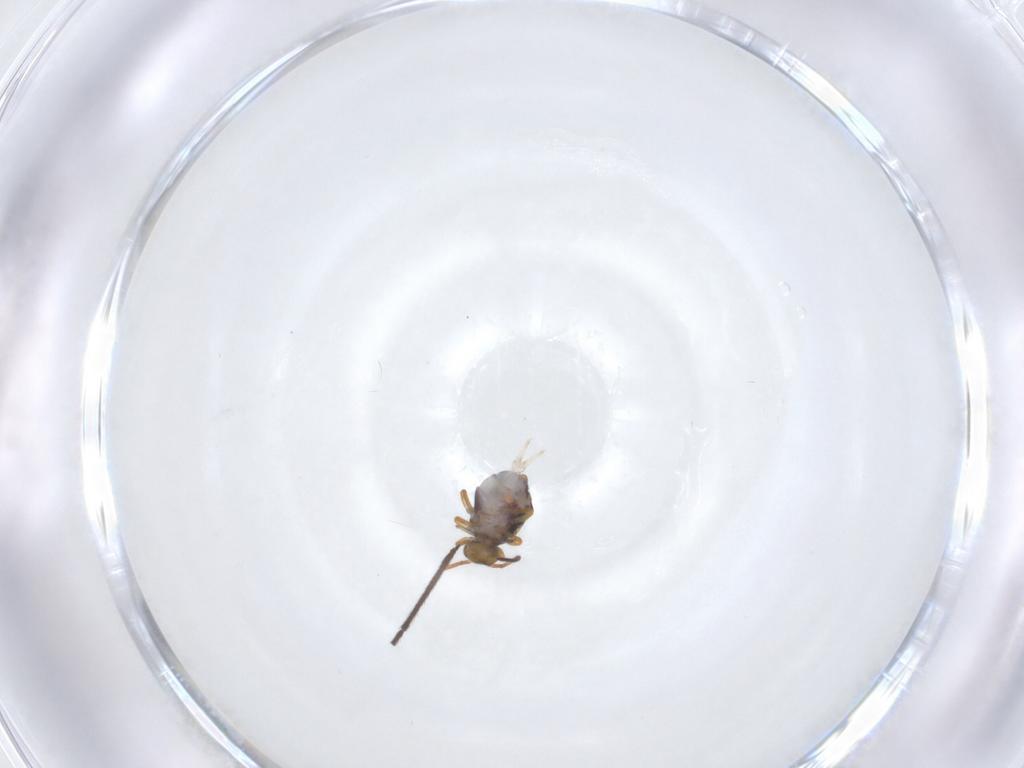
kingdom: Animalia
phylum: Arthropoda
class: Collembola
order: Symphypleona
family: Katiannidae
